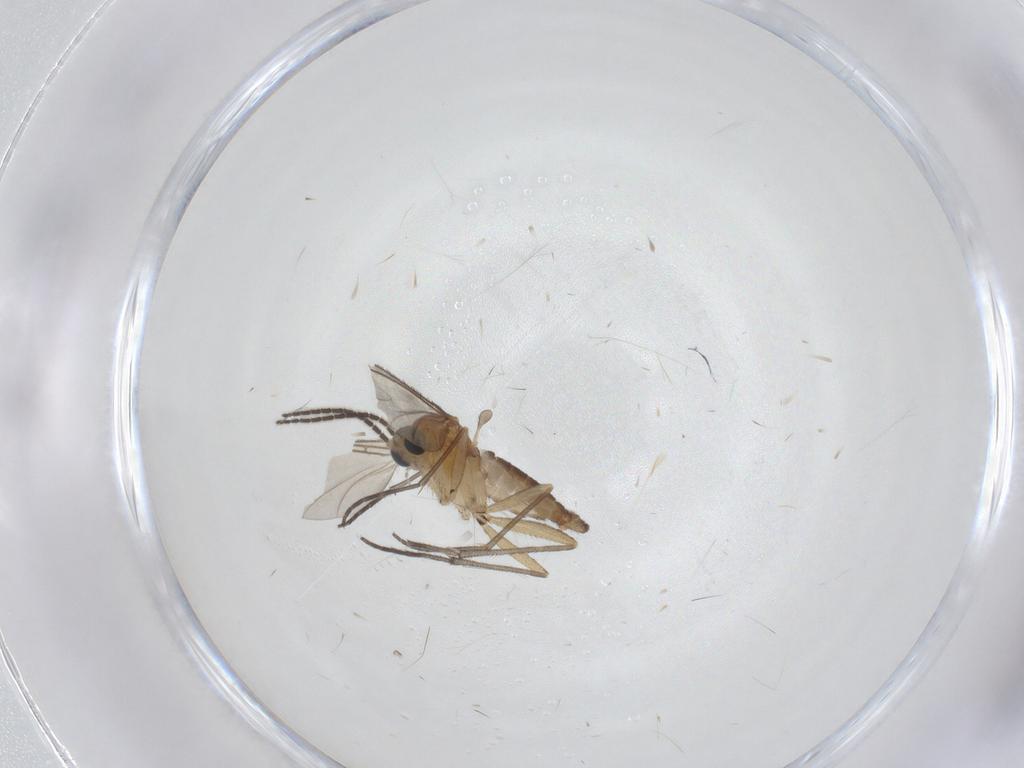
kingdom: Animalia
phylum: Arthropoda
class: Insecta
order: Diptera
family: Sciaridae
